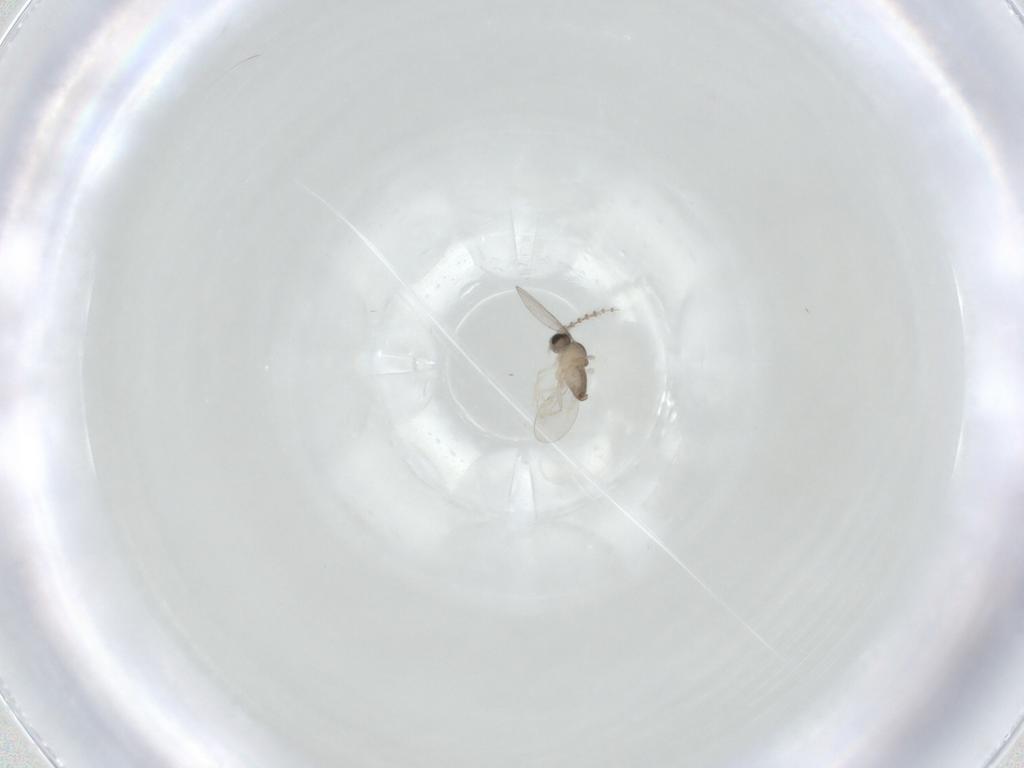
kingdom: Animalia
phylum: Arthropoda
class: Insecta
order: Diptera
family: Cecidomyiidae
